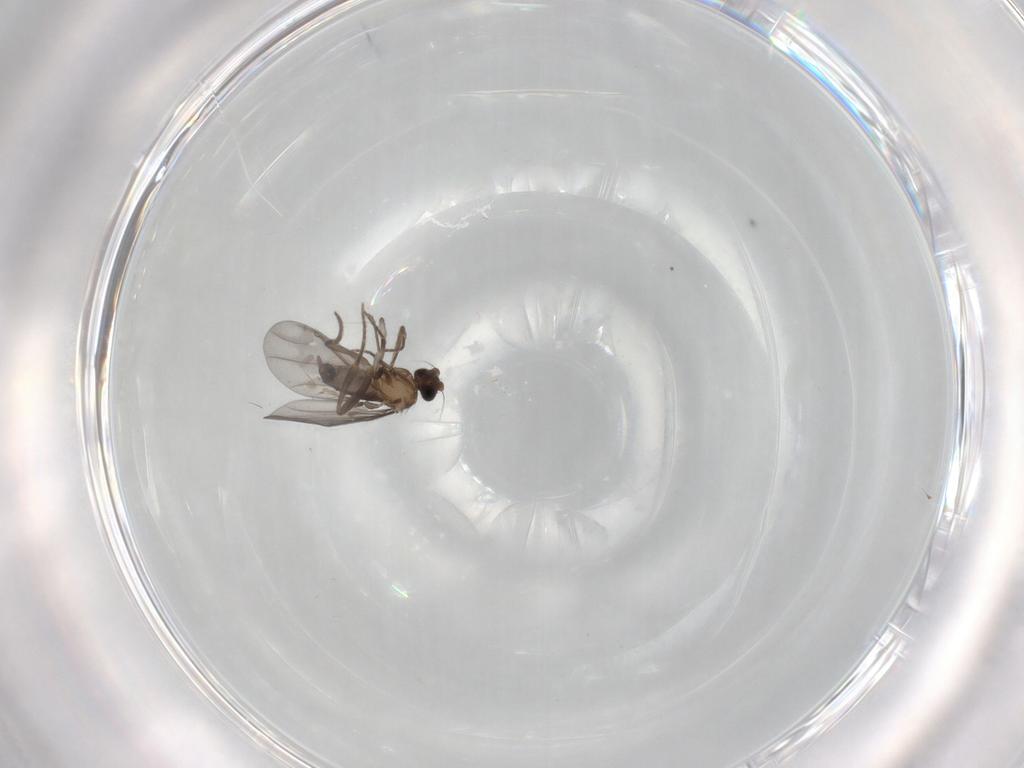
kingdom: Animalia
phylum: Arthropoda
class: Insecta
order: Diptera
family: Cecidomyiidae
